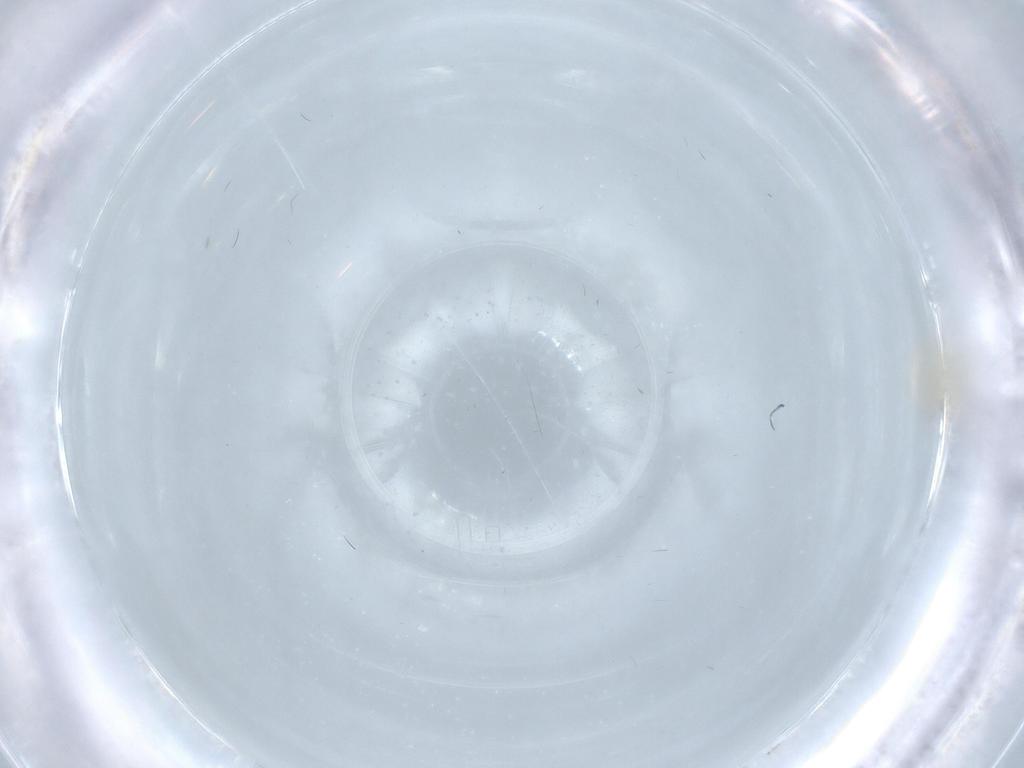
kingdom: Animalia
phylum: Arthropoda
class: Insecta
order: Diptera
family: Cecidomyiidae
